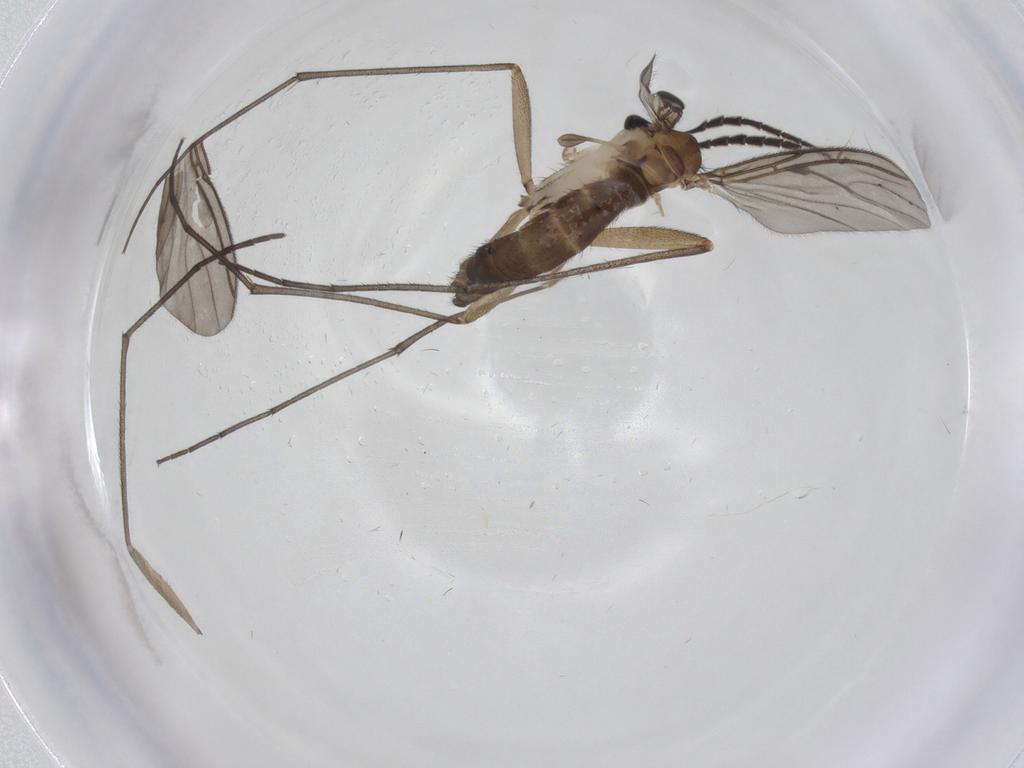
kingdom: Animalia
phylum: Arthropoda
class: Insecta
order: Diptera
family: Sciaridae
